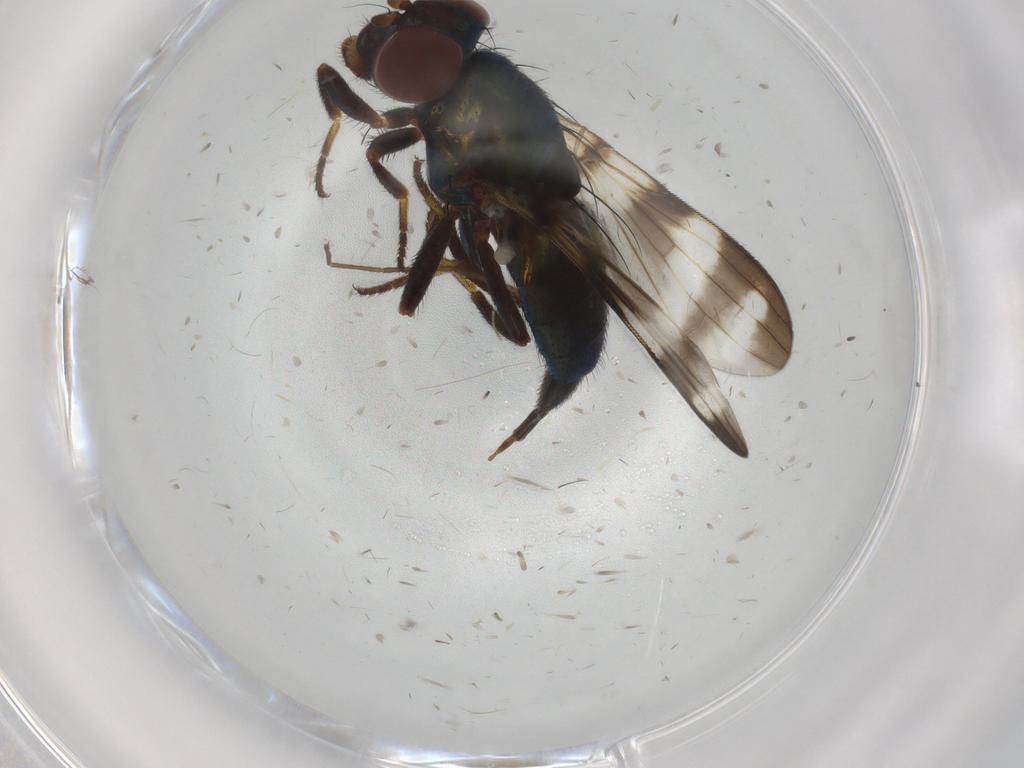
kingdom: Animalia
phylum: Arthropoda
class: Insecta
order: Diptera
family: Ulidiidae
